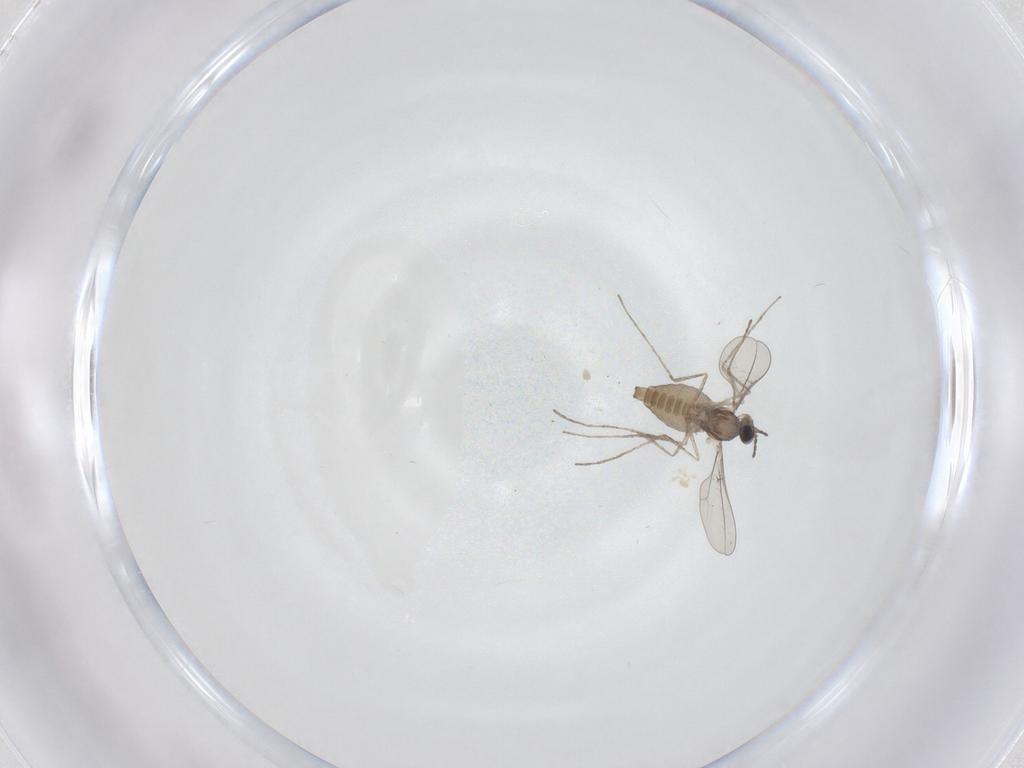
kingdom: Animalia
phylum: Arthropoda
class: Insecta
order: Diptera
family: Cecidomyiidae
